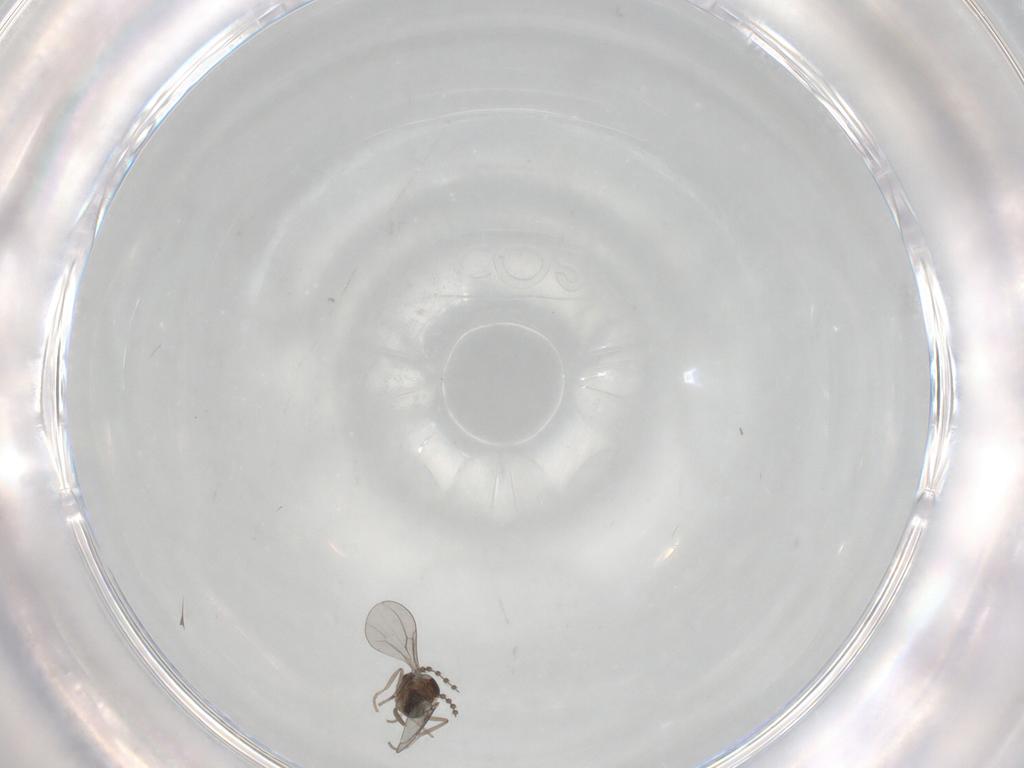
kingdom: Animalia
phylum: Arthropoda
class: Insecta
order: Diptera
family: Cecidomyiidae
